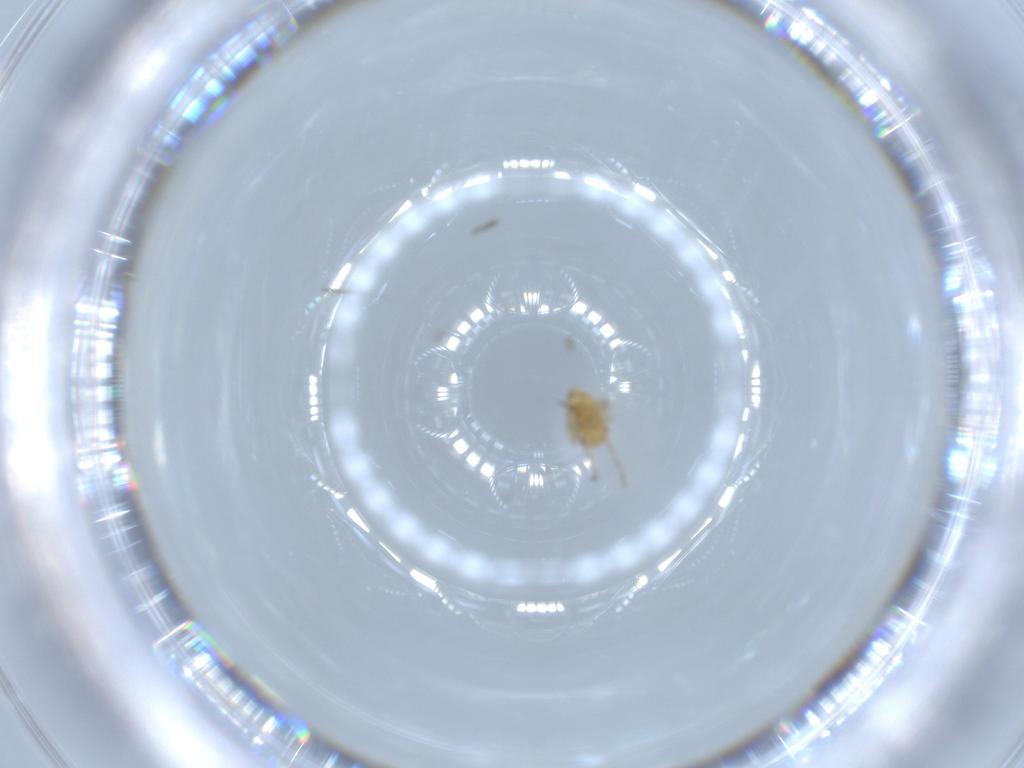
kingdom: Animalia
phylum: Arthropoda
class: Insecta
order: Hemiptera
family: Miridae
